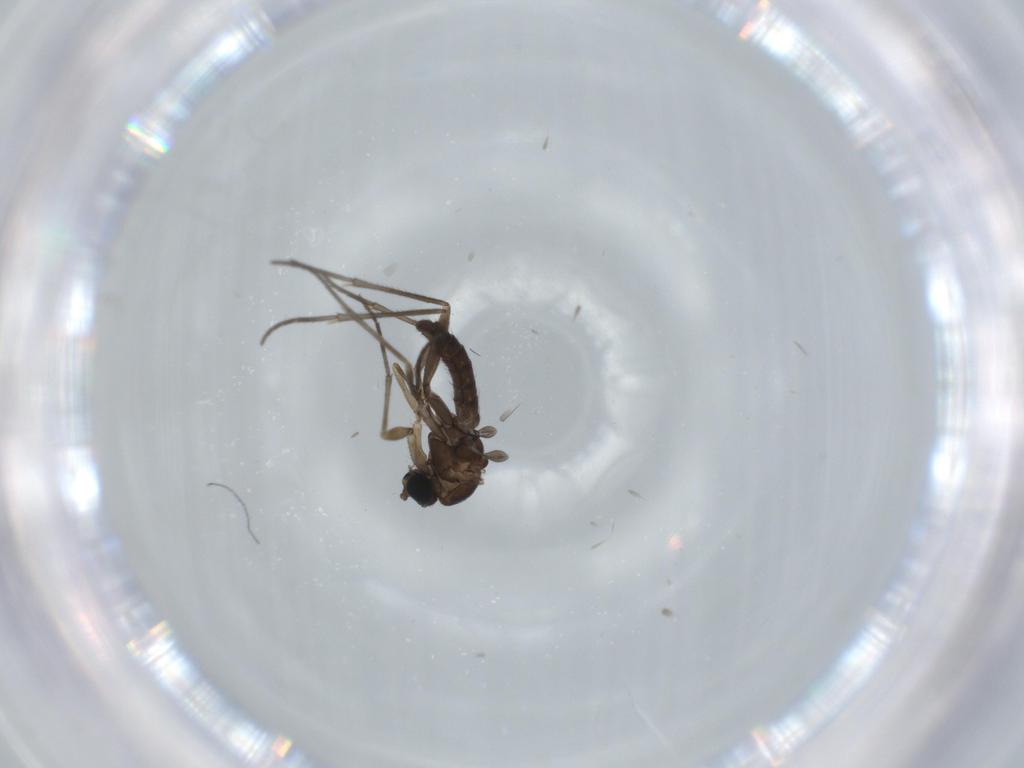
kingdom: Animalia
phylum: Arthropoda
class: Insecta
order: Diptera
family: Sciaridae
